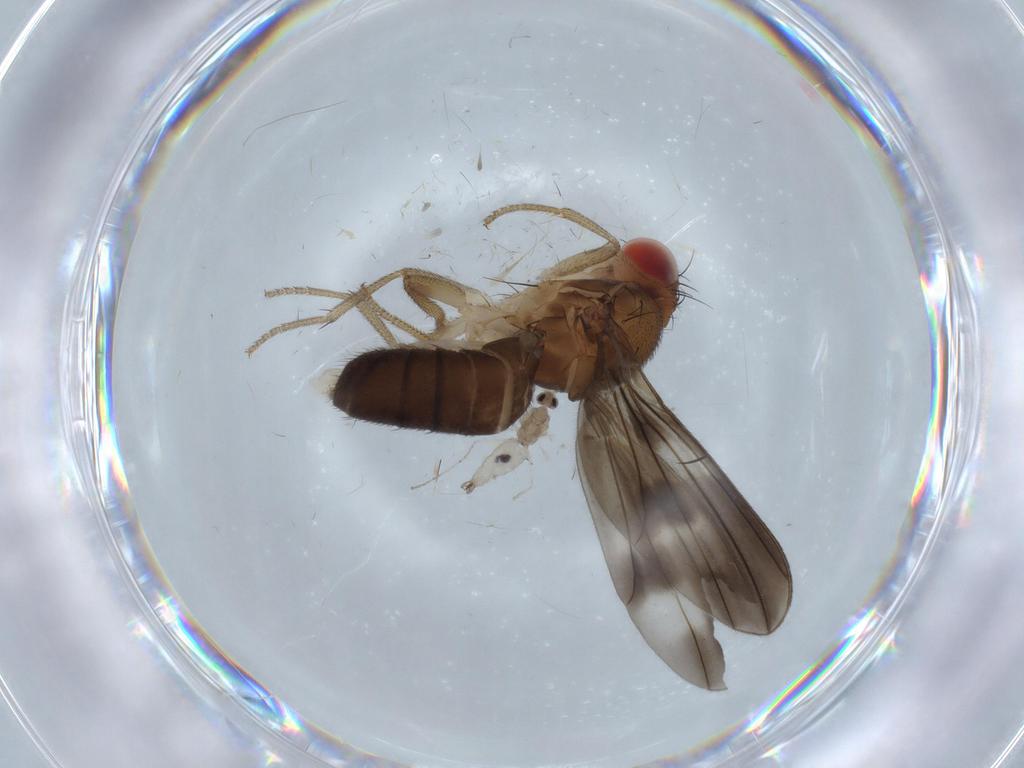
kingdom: Animalia
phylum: Arthropoda
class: Insecta
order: Diptera
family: Drosophilidae
